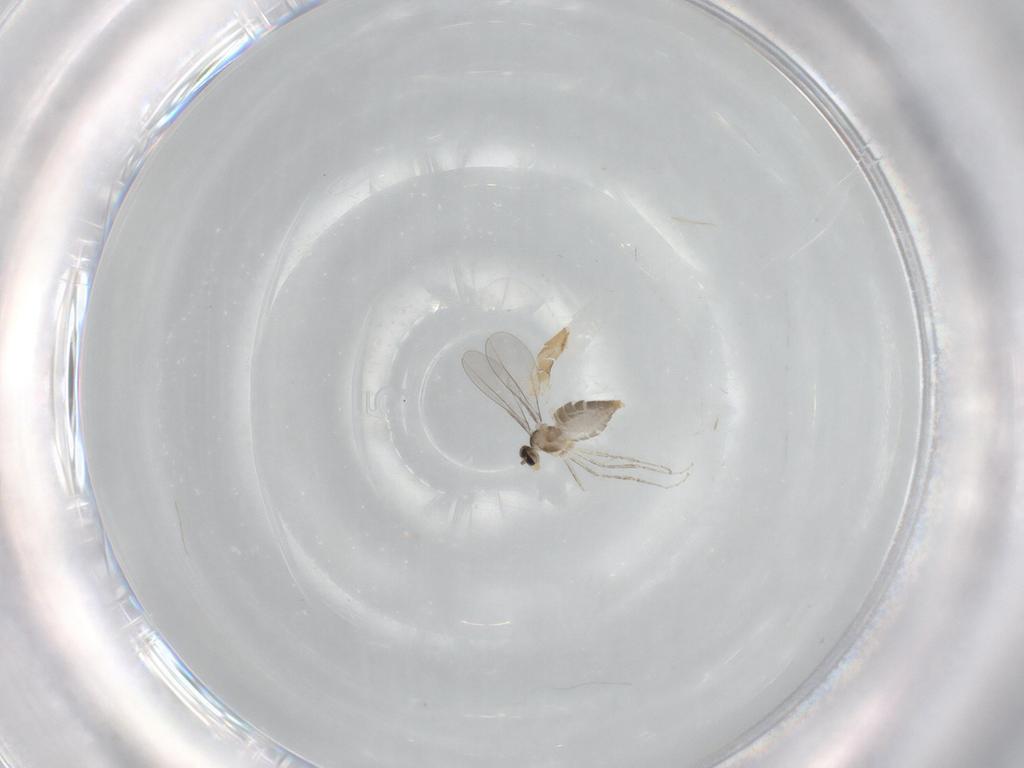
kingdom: Animalia
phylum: Arthropoda
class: Insecta
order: Diptera
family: Cecidomyiidae
